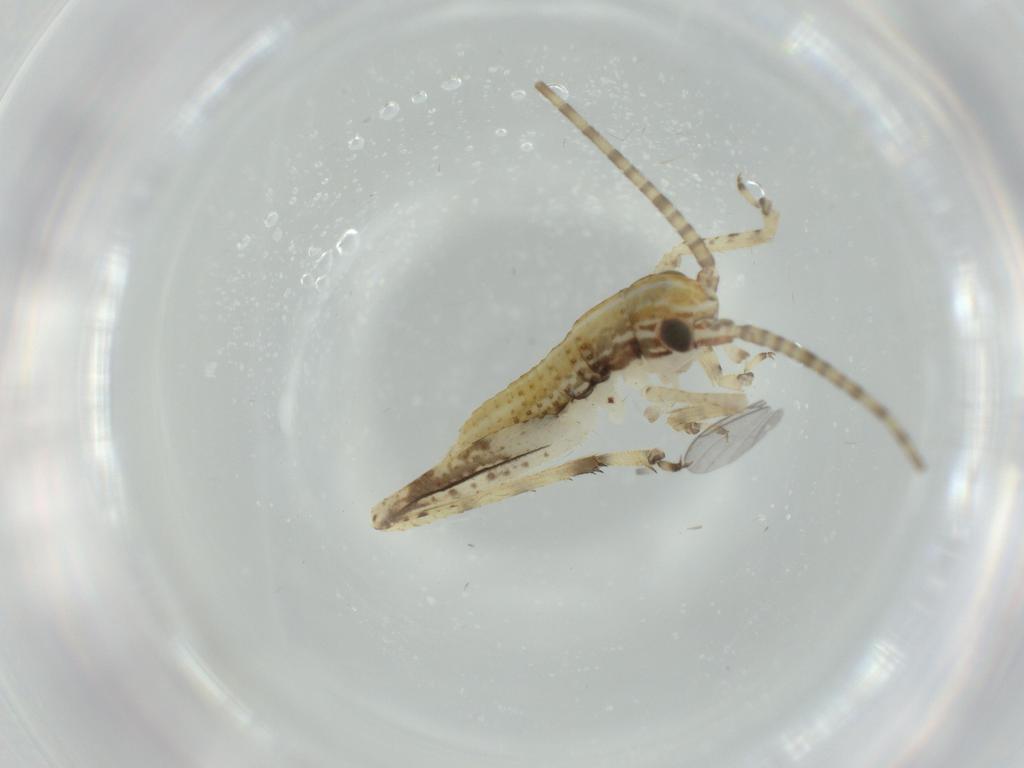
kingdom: Animalia
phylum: Arthropoda
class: Insecta
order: Orthoptera
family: Gryllidae
